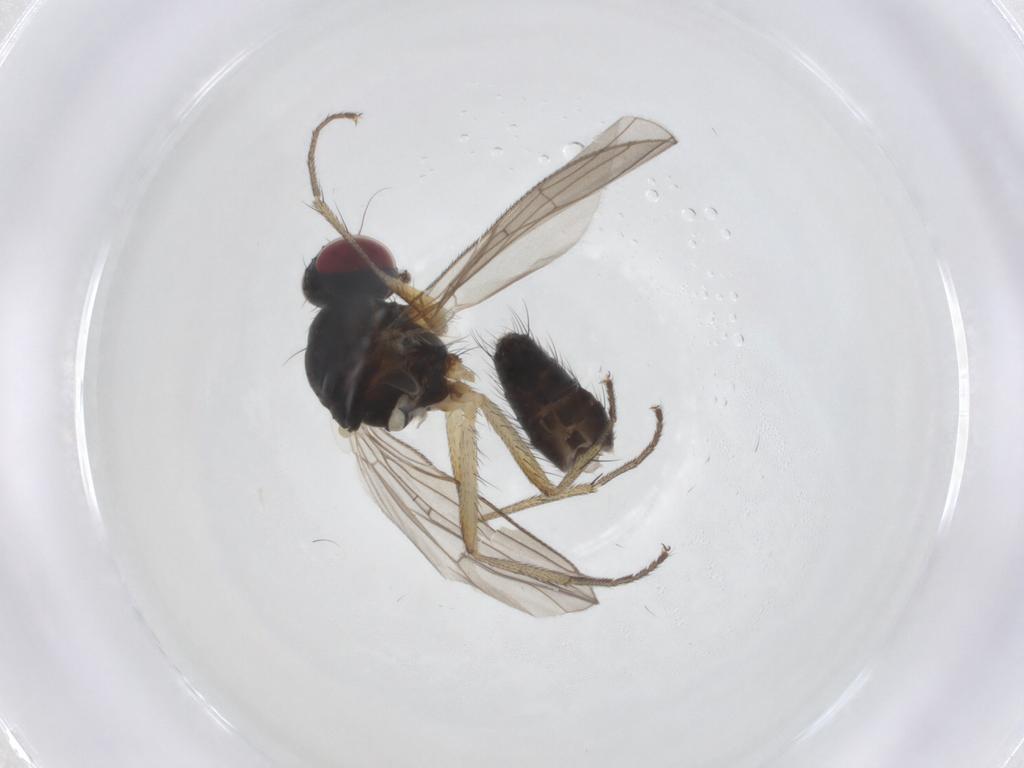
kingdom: Animalia
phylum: Arthropoda
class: Insecta
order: Diptera
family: Muscidae
